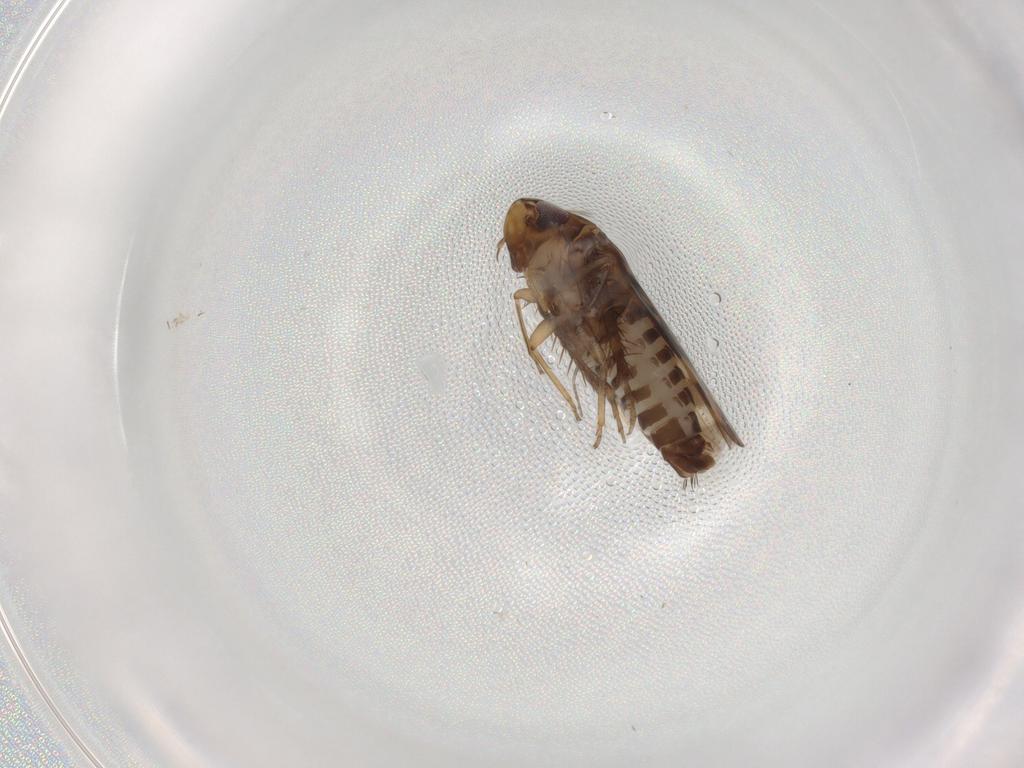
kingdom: Animalia
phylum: Arthropoda
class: Insecta
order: Hemiptera
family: Cicadellidae
